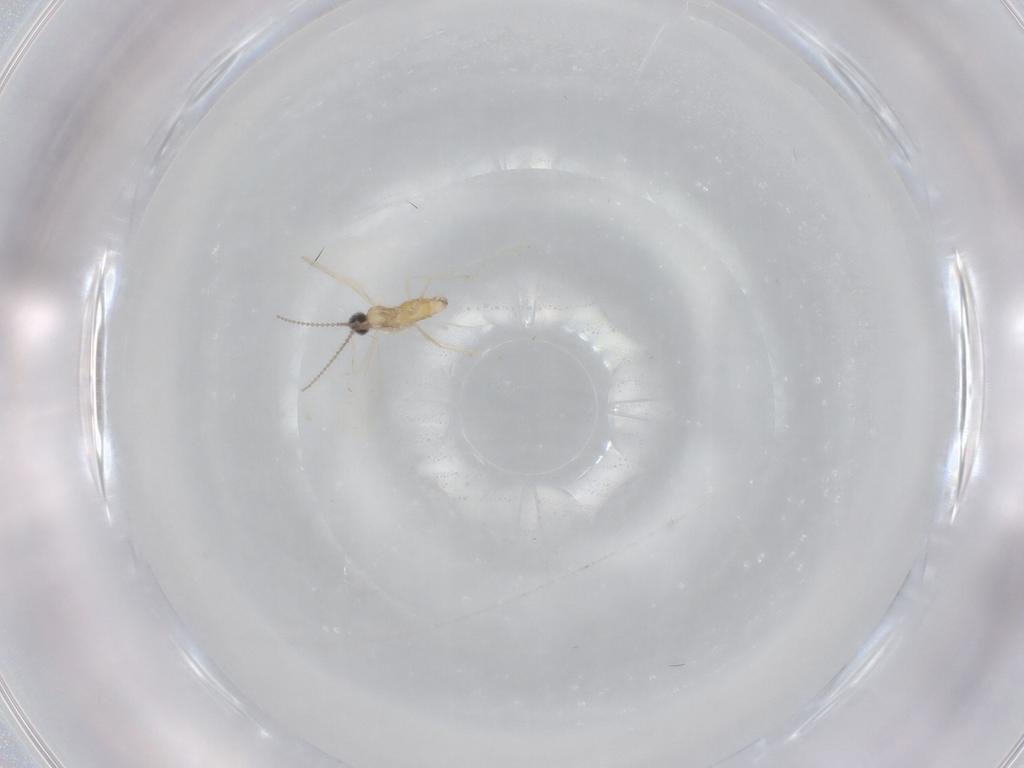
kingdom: Animalia
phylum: Arthropoda
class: Insecta
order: Diptera
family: Cecidomyiidae
